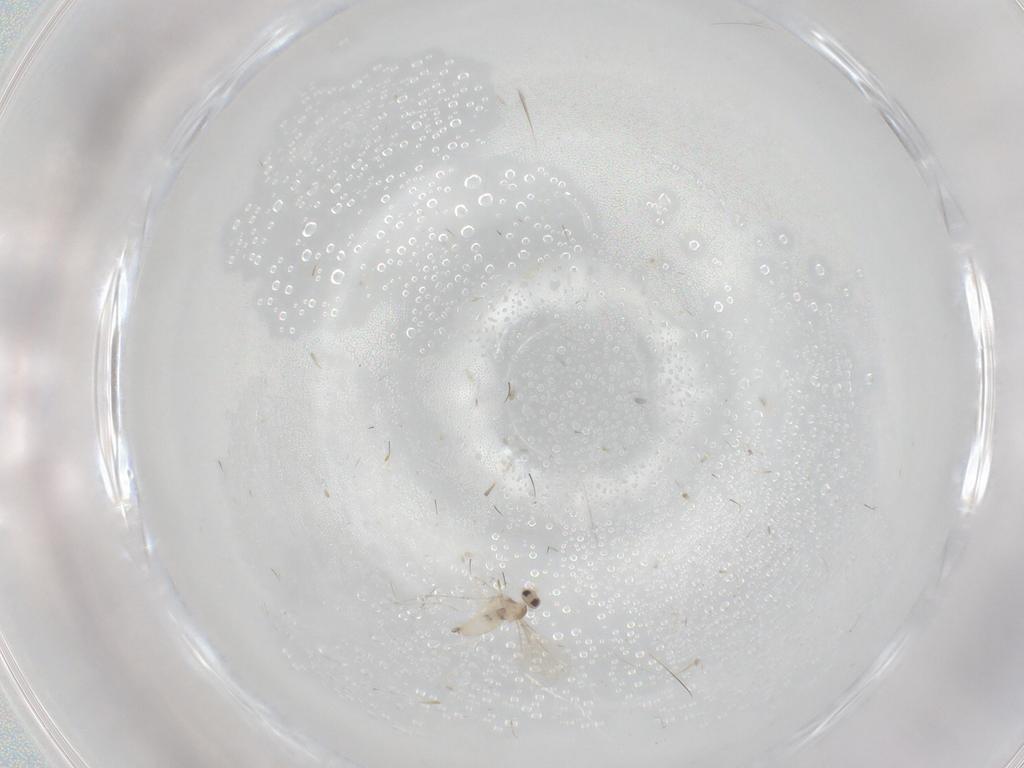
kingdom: Animalia
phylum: Arthropoda
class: Insecta
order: Diptera
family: Cecidomyiidae
